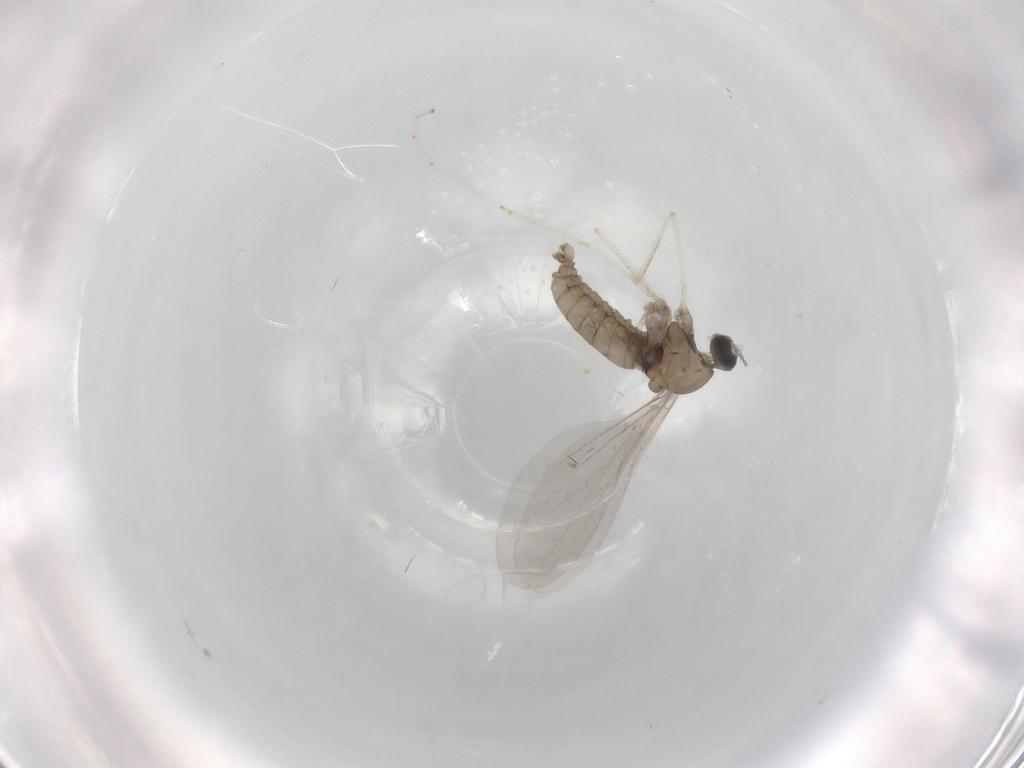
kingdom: Animalia
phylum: Arthropoda
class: Insecta
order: Diptera
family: Cecidomyiidae
